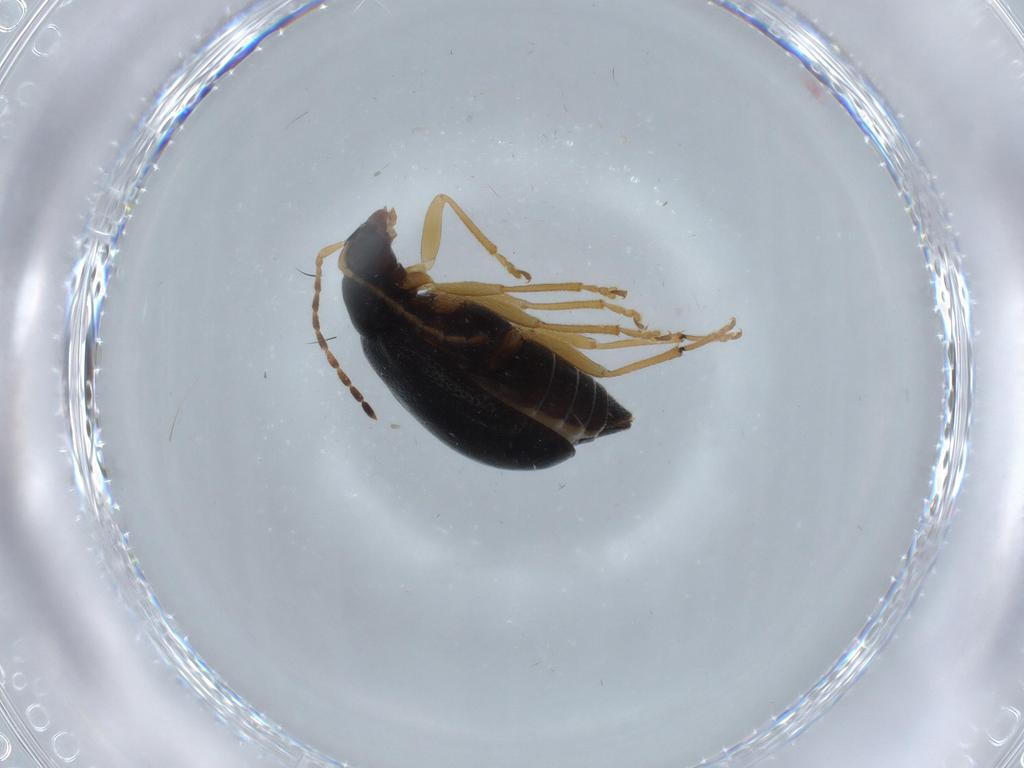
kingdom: Animalia
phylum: Arthropoda
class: Insecta
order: Coleoptera
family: Chrysomelidae
